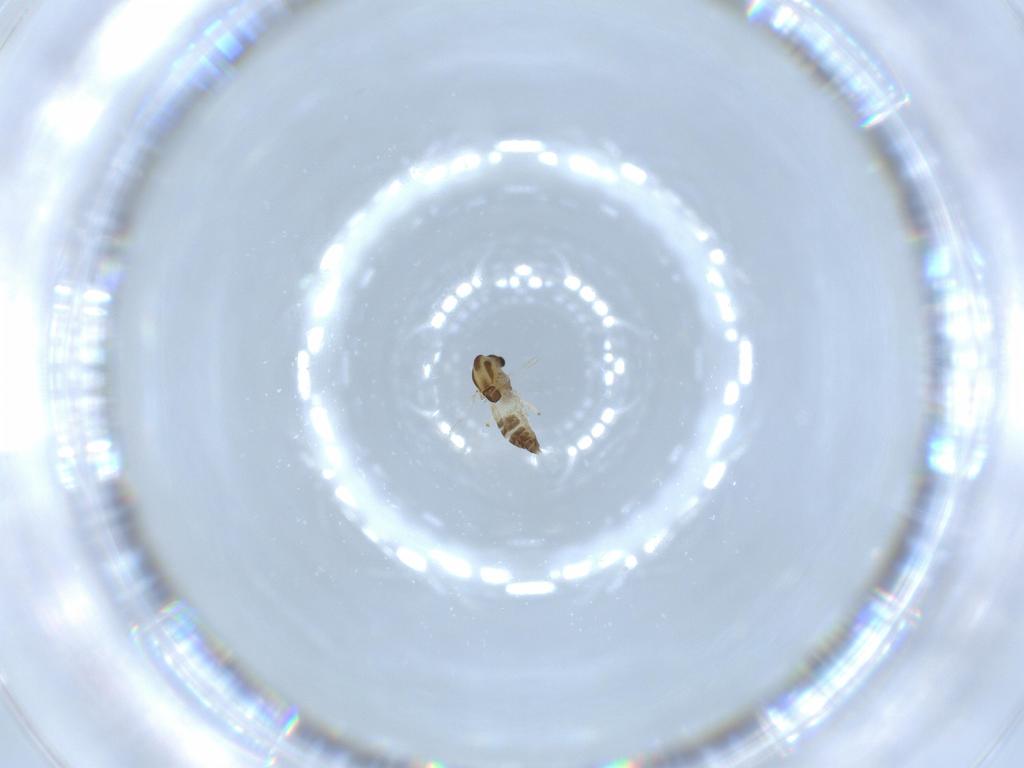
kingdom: Animalia
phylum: Arthropoda
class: Insecta
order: Diptera
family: Chironomidae
